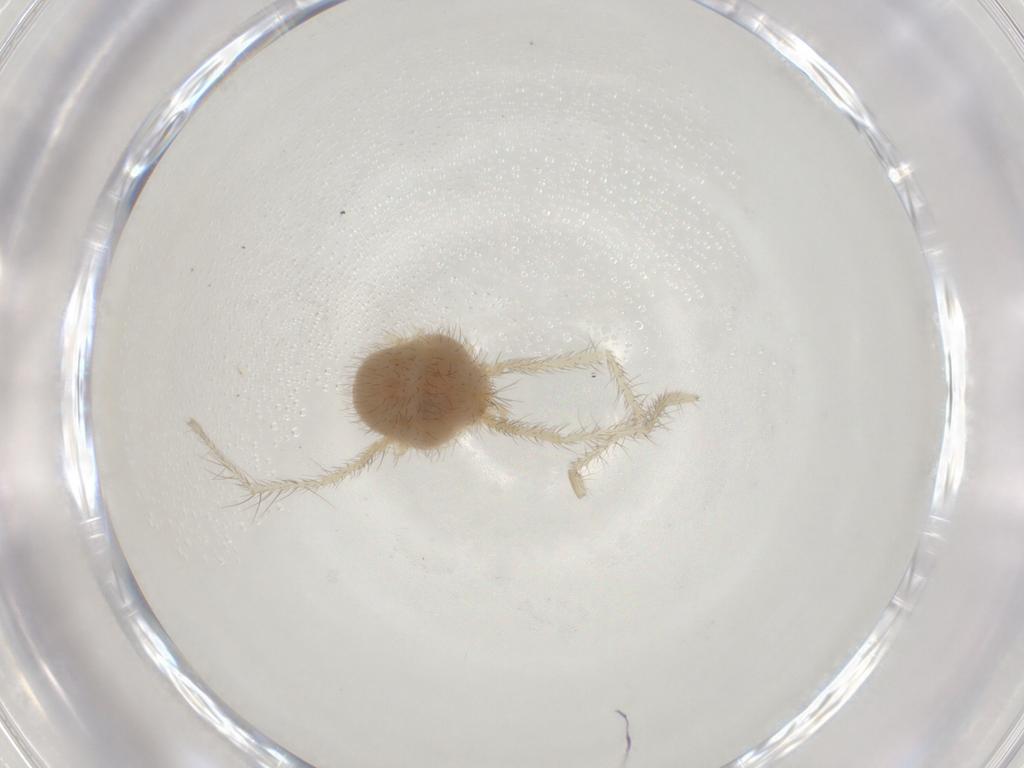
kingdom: Animalia
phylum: Arthropoda
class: Arachnida
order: Trombidiformes
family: Erythraeidae
